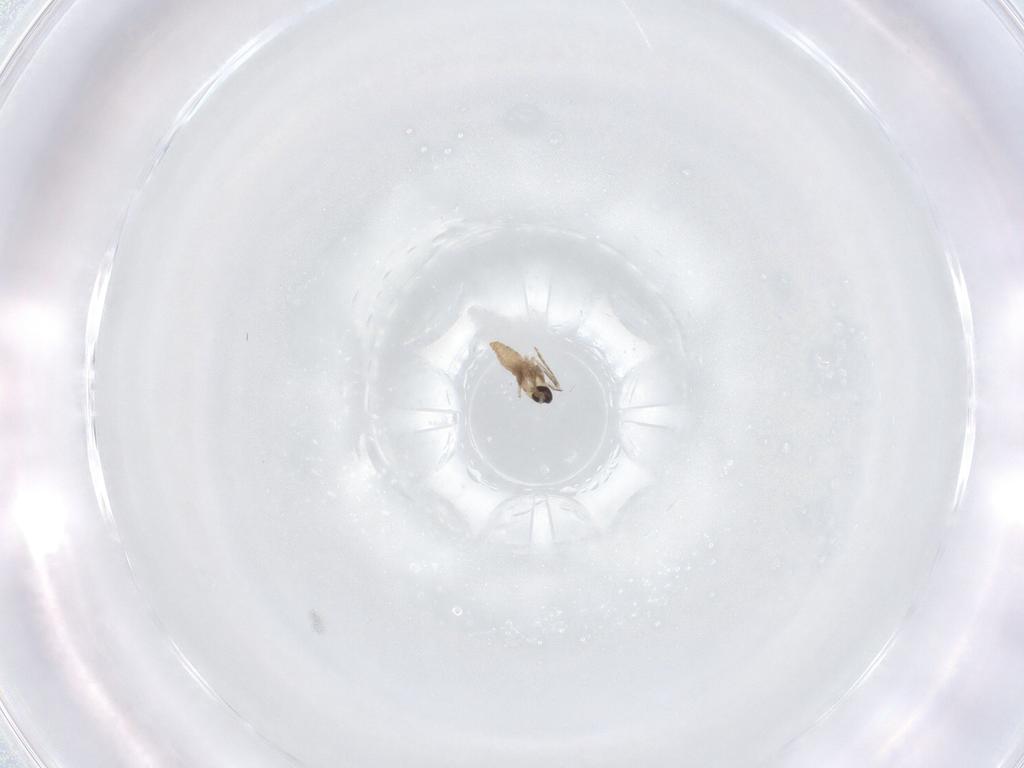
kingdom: Animalia
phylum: Arthropoda
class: Insecta
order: Diptera
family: Cecidomyiidae
